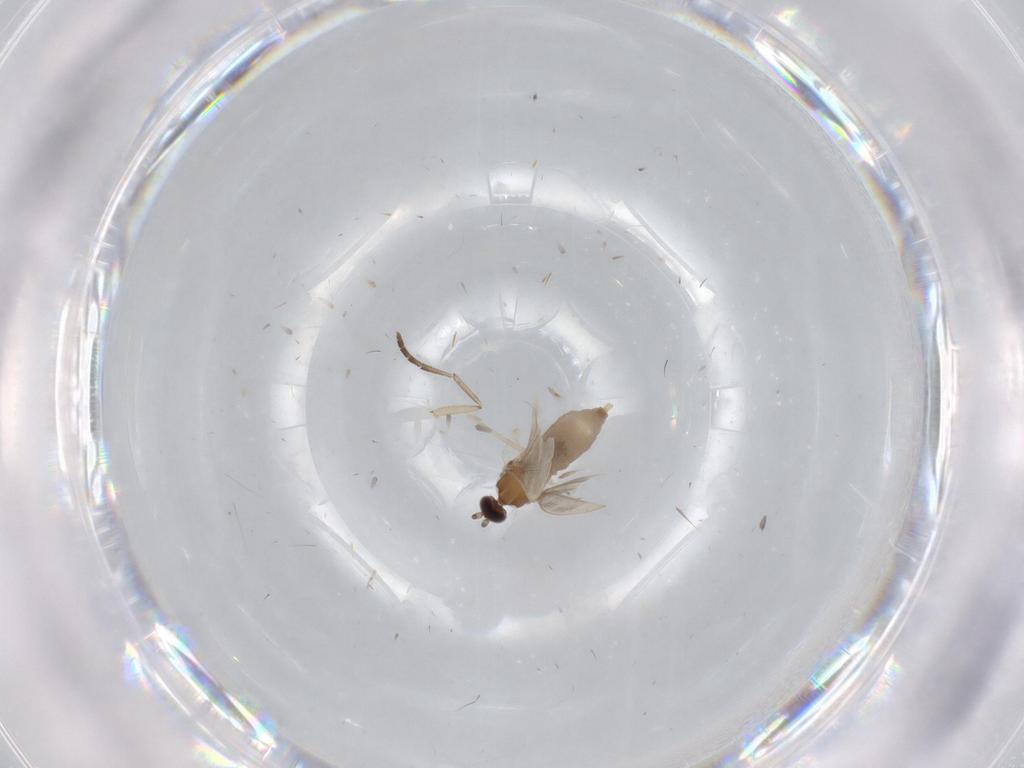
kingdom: Animalia
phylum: Arthropoda
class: Insecta
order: Diptera
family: Cecidomyiidae
